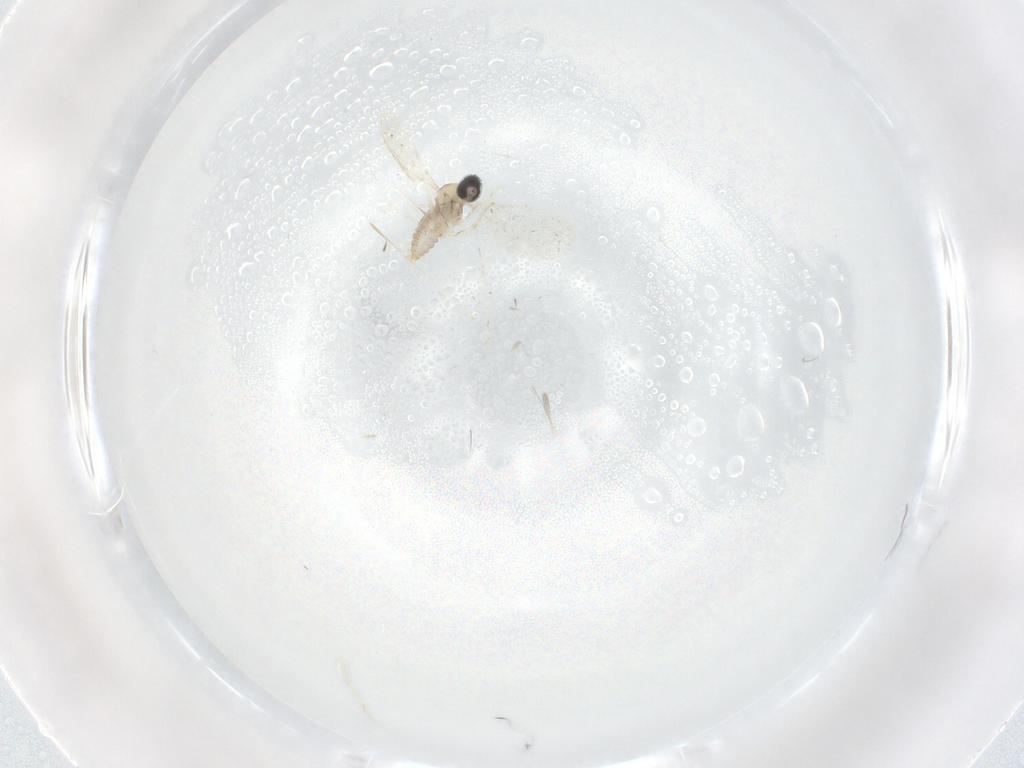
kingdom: Animalia
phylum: Arthropoda
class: Insecta
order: Diptera
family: Cecidomyiidae
